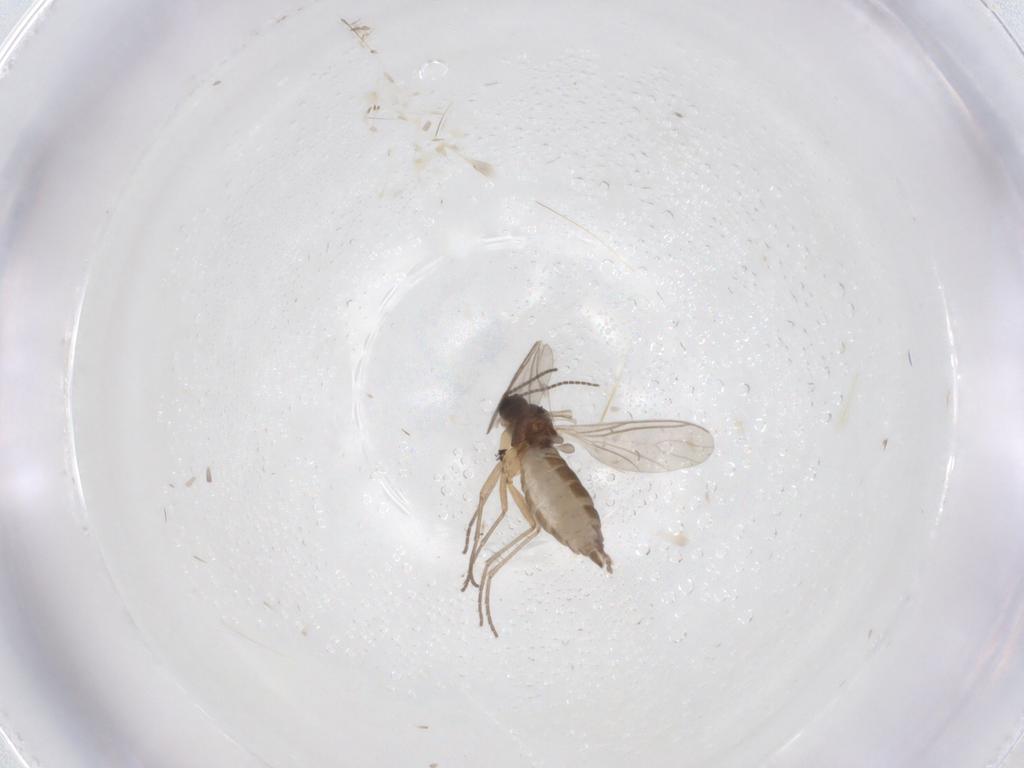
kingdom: Animalia
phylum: Arthropoda
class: Insecta
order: Diptera
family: Sciaridae
